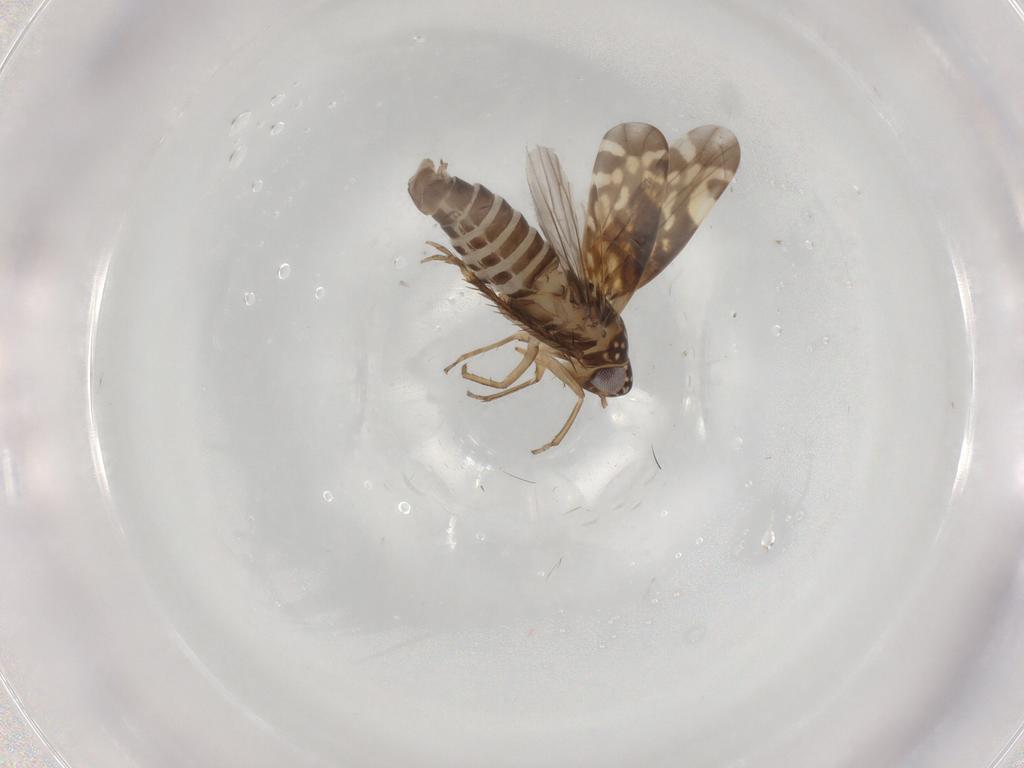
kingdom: Animalia
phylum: Arthropoda
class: Insecta
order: Hemiptera
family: Cicadellidae
